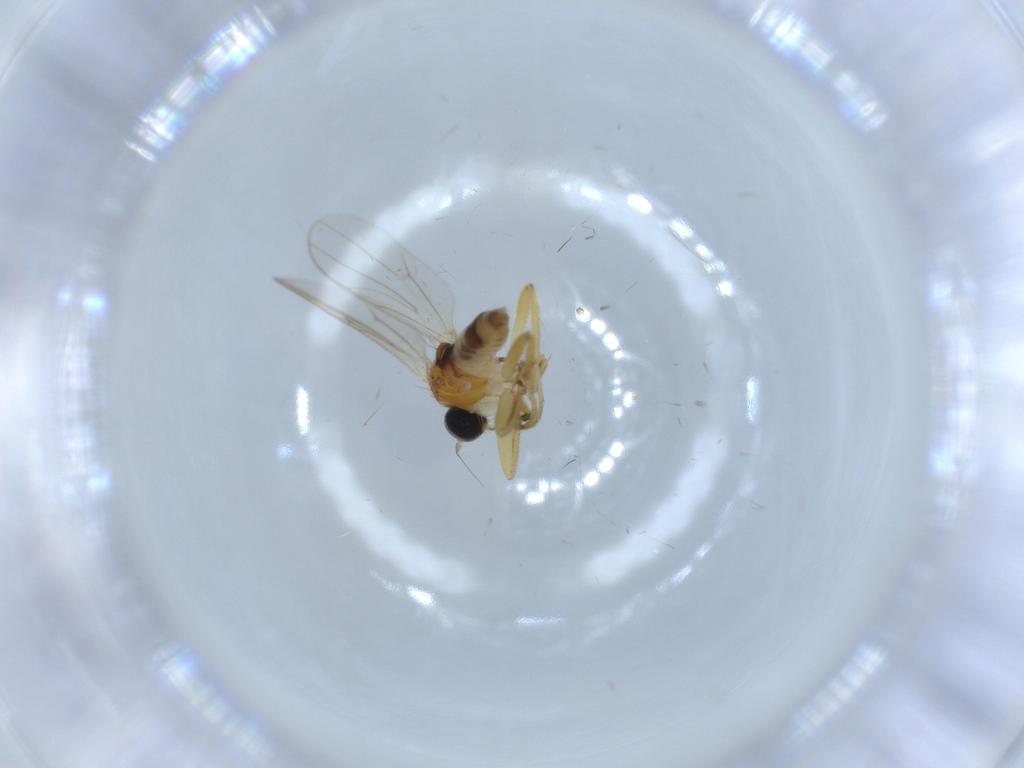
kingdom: Animalia
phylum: Arthropoda
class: Insecta
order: Diptera
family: Hybotidae
